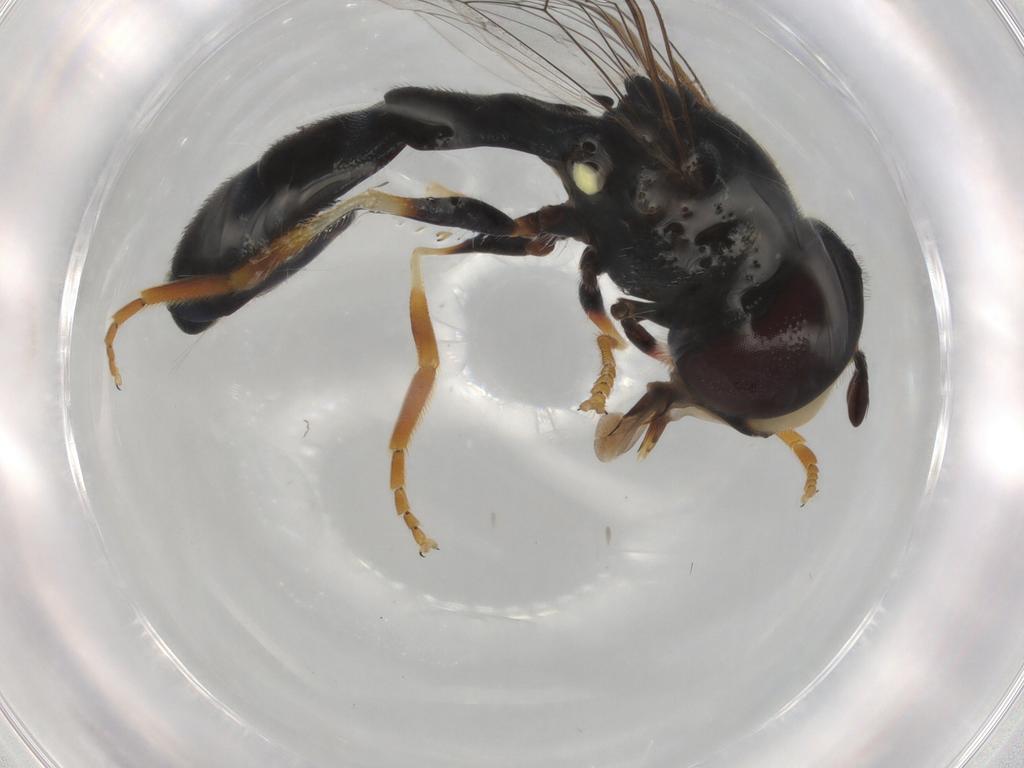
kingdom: Animalia
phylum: Arthropoda
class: Insecta
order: Diptera
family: Syrphidae
